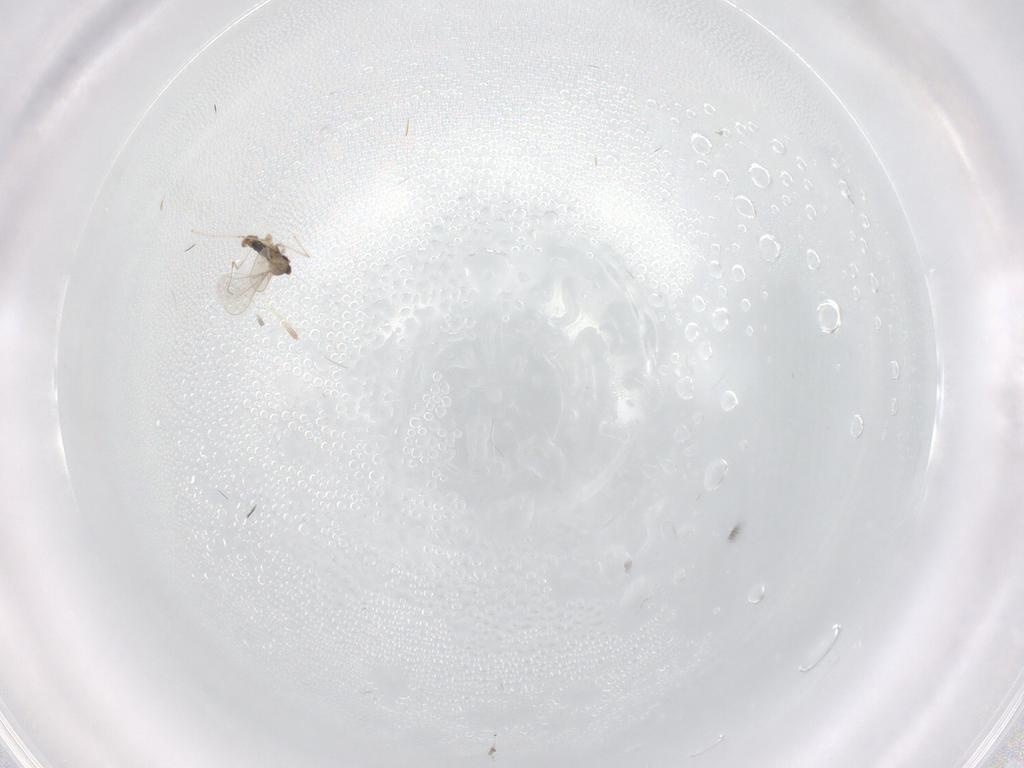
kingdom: Animalia
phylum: Arthropoda
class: Insecta
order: Diptera
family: Cecidomyiidae
